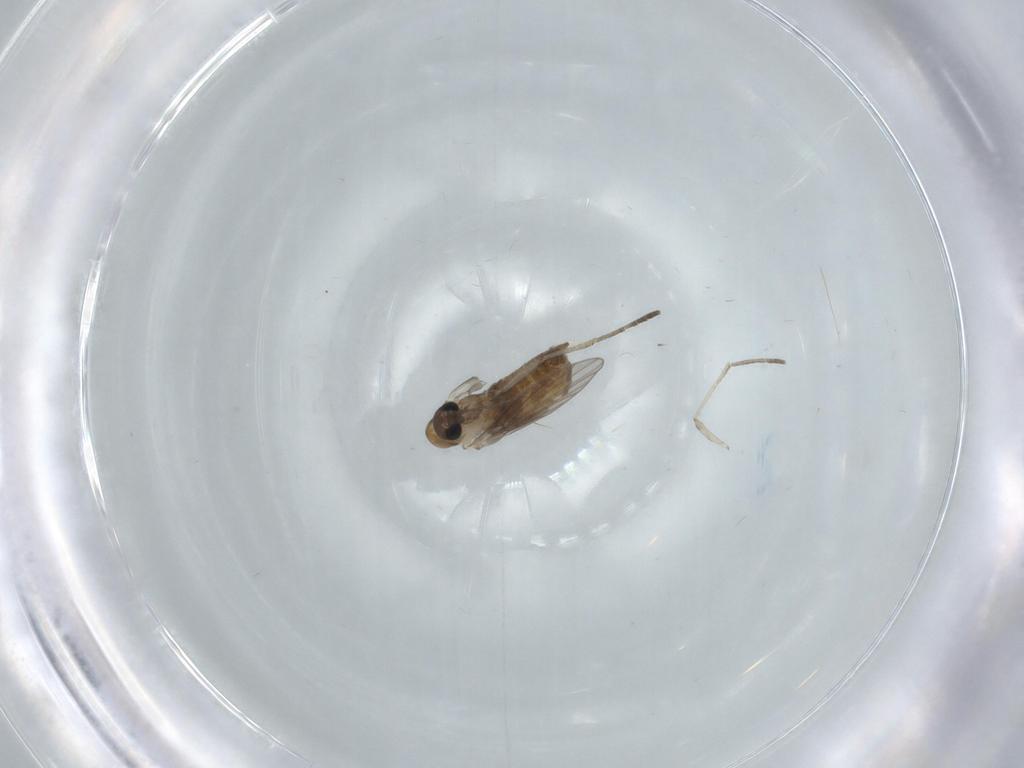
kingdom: Animalia
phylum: Arthropoda
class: Insecta
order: Diptera
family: Psychodidae
